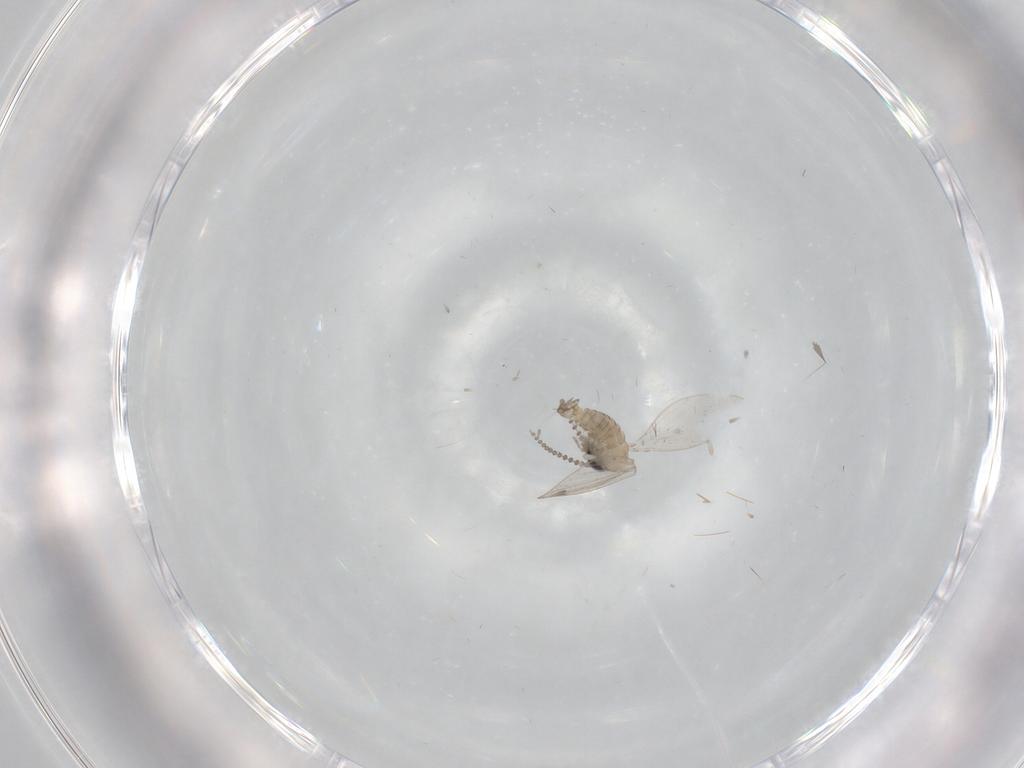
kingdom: Animalia
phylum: Arthropoda
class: Insecta
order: Diptera
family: Psychodidae
